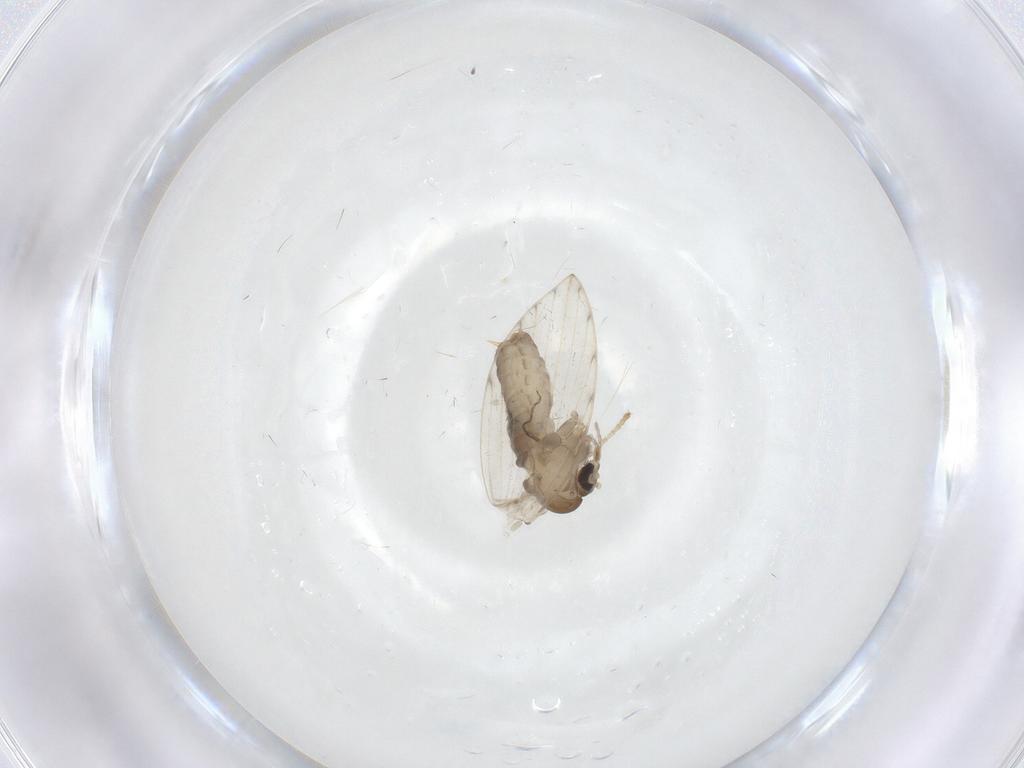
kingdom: Animalia
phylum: Arthropoda
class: Insecta
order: Diptera
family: Psychodidae
